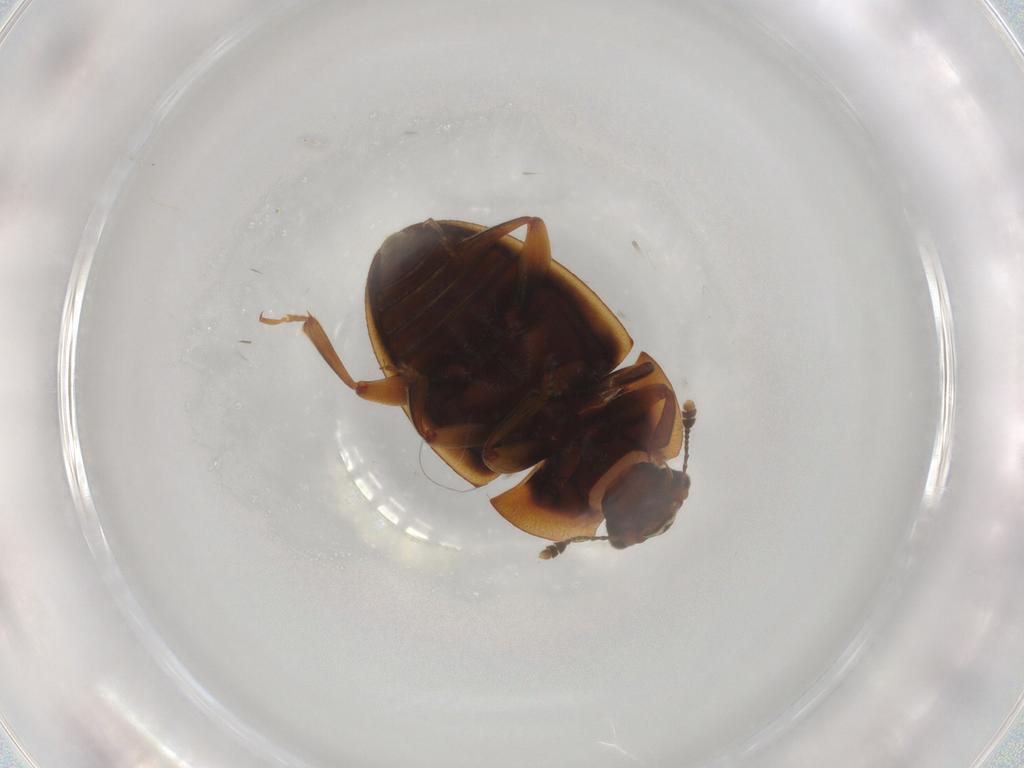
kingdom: Animalia
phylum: Arthropoda
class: Insecta
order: Coleoptera
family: Nitidulidae
